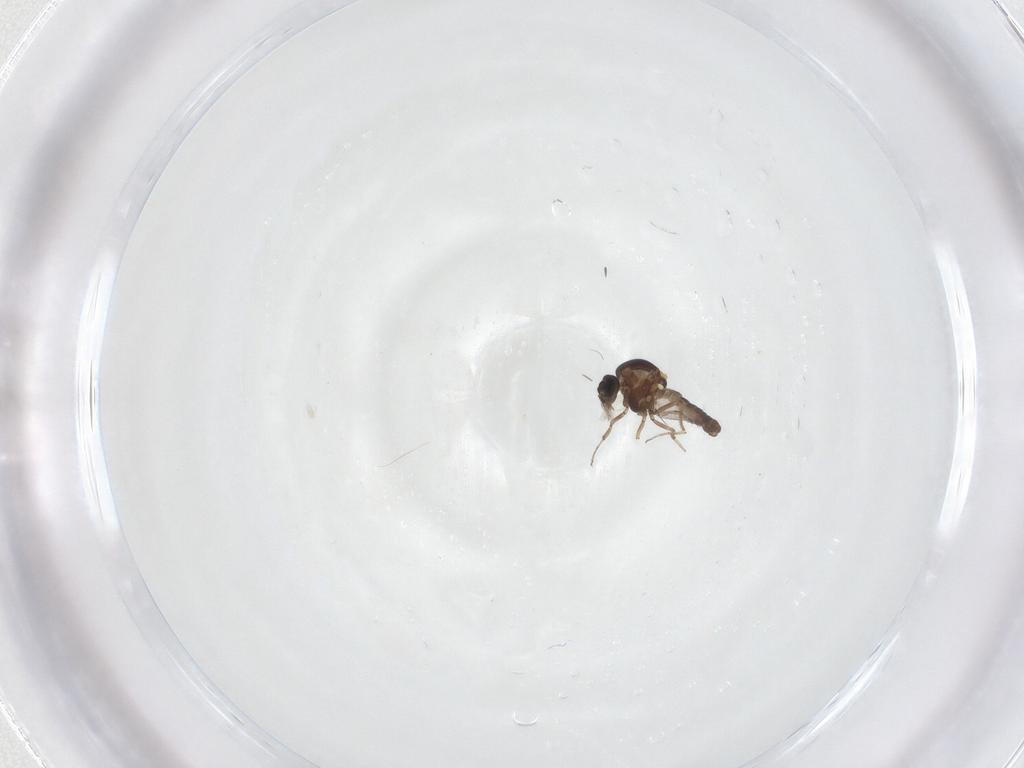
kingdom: Animalia
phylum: Arthropoda
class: Insecta
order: Diptera
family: Ceratopogonidae
